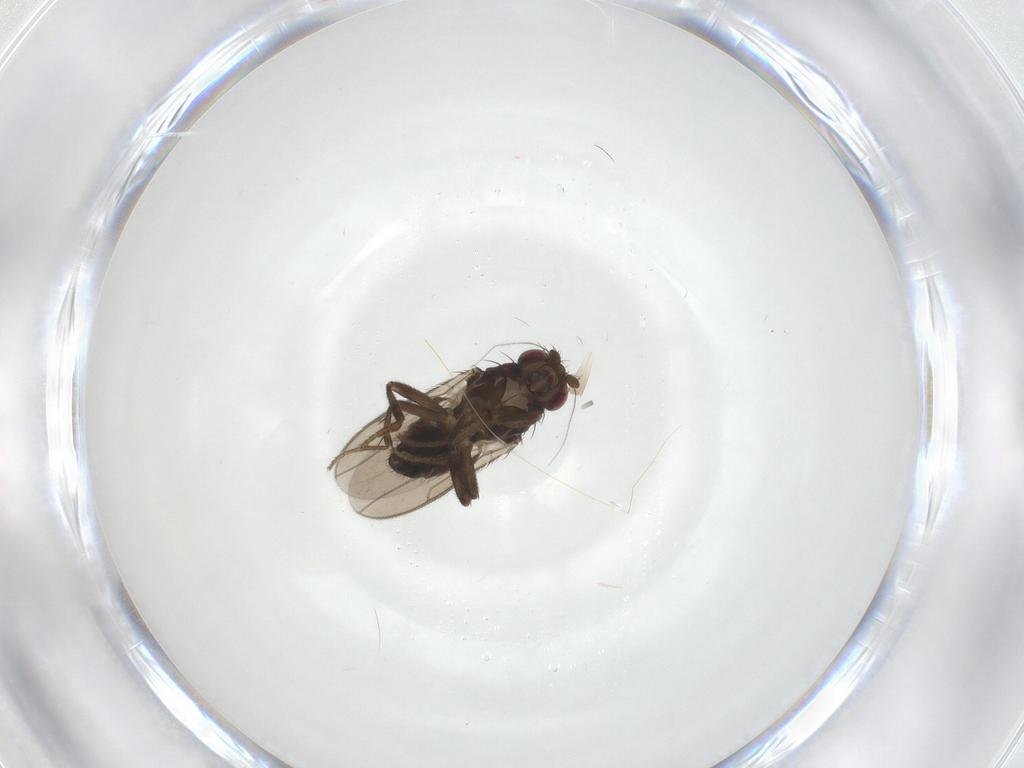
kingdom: Animalia
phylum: Arthropoda
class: Insecta
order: Diptera
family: Sphaeroceridae
